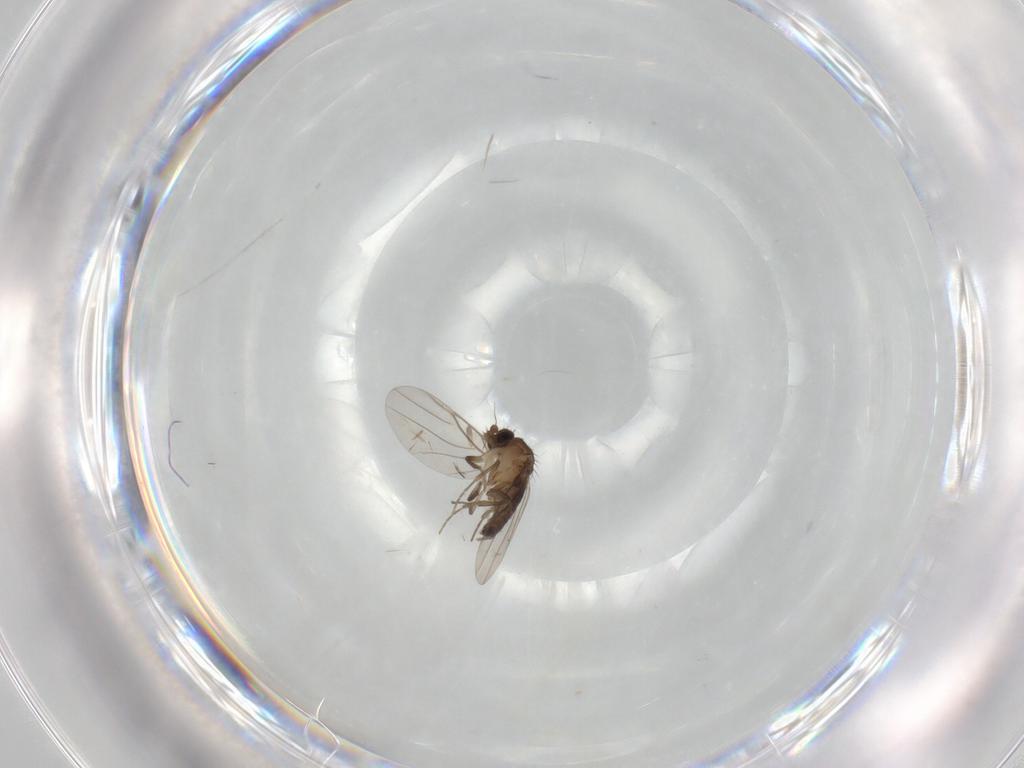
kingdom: Animalia
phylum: Arthropoda
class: Insecta
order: Diptera
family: Phoridae
